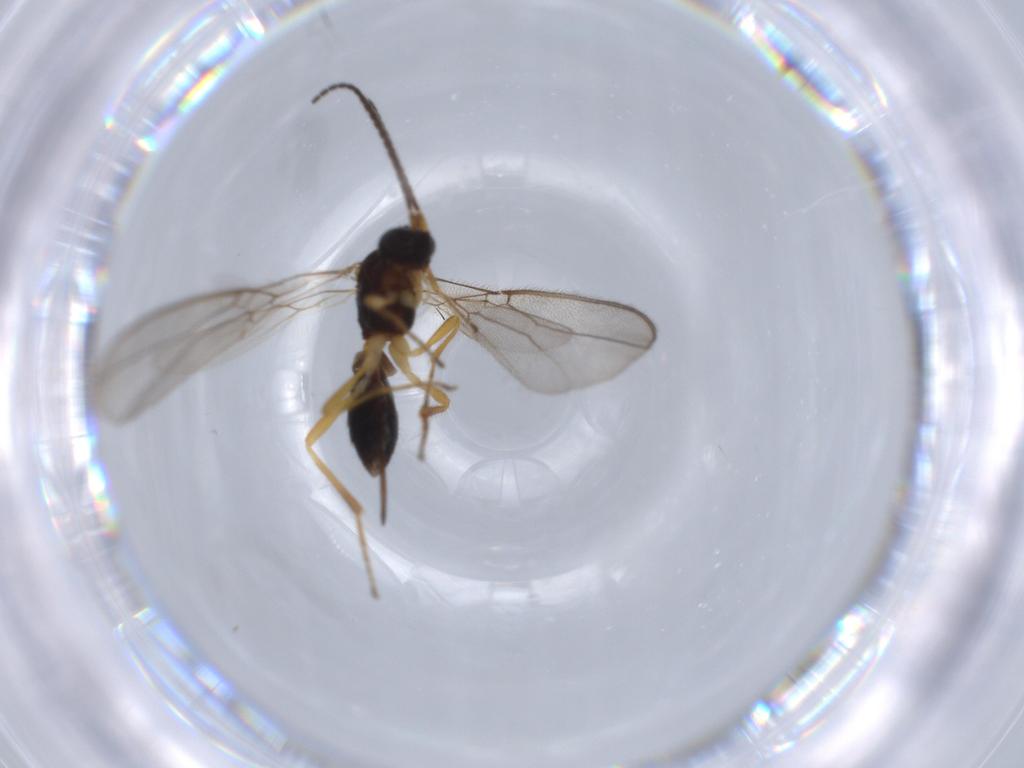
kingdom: Animalia
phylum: Arthropoda
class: Insecta
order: Hymenoptera
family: Braconidae
